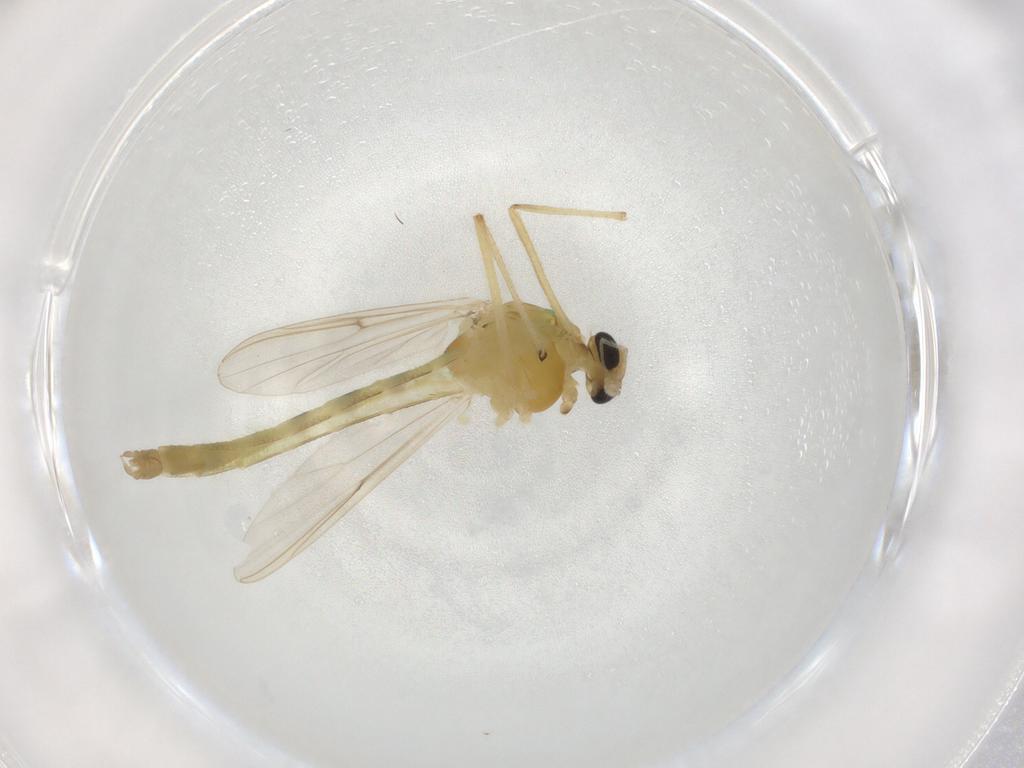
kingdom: Animalia
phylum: Arthropoda
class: Insecta
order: Diptera
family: Chironomidae
